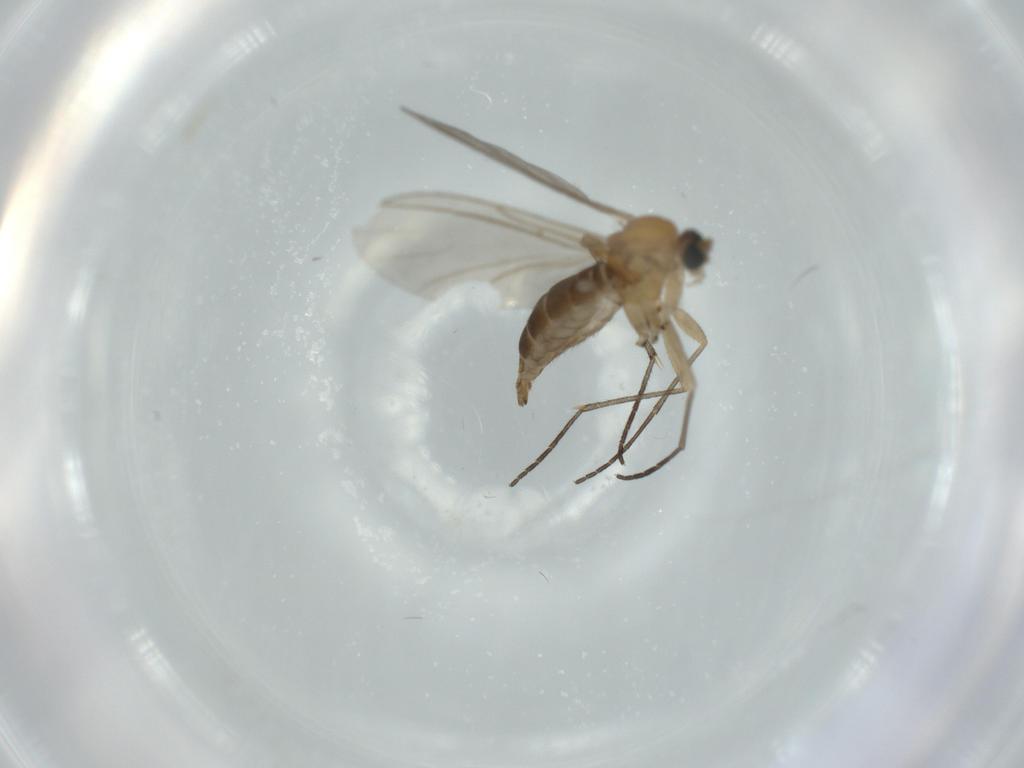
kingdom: Animalia
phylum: Arthropoda
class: Insecta
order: Diptera
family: Sciaridae
